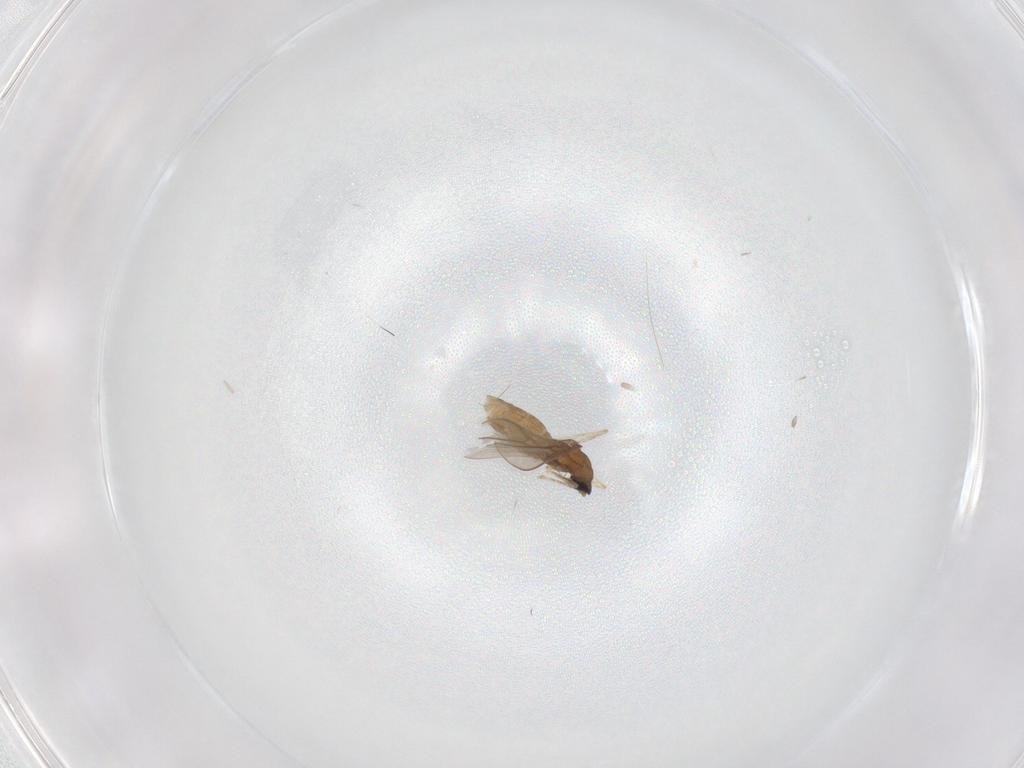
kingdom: Animalia
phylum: Arthropoda
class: Insecta
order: Diptera
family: Cecidomyiidae
